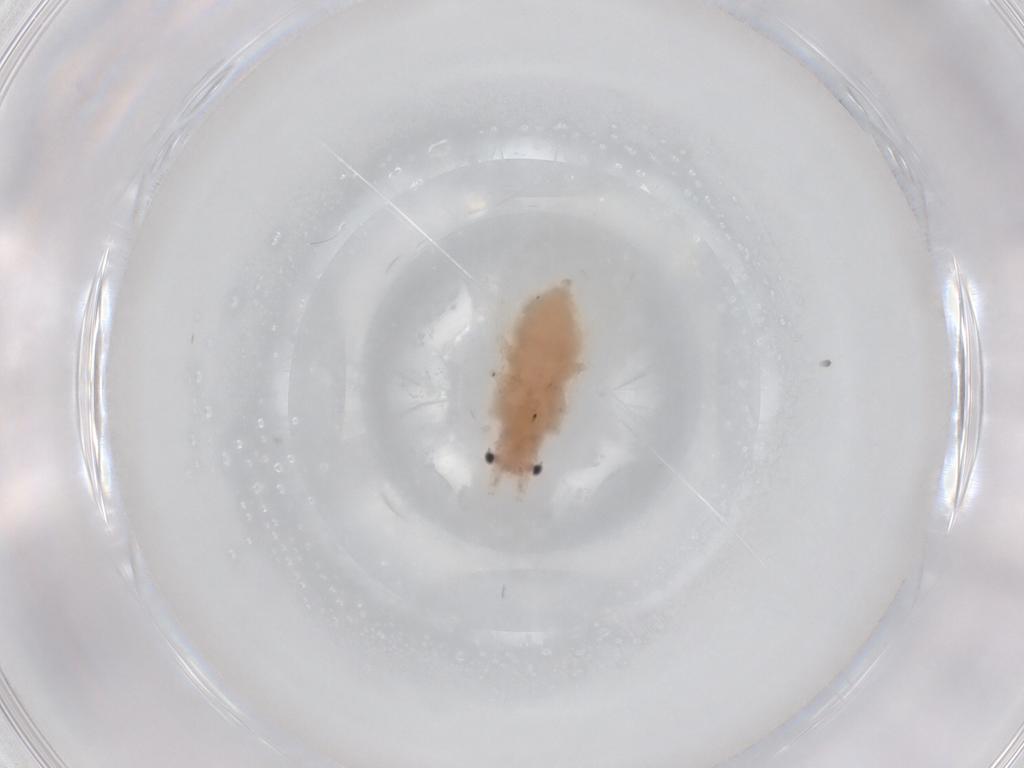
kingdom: Animalia
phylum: Arthropoda
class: Insecta
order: Hemiptera
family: Aphididae
